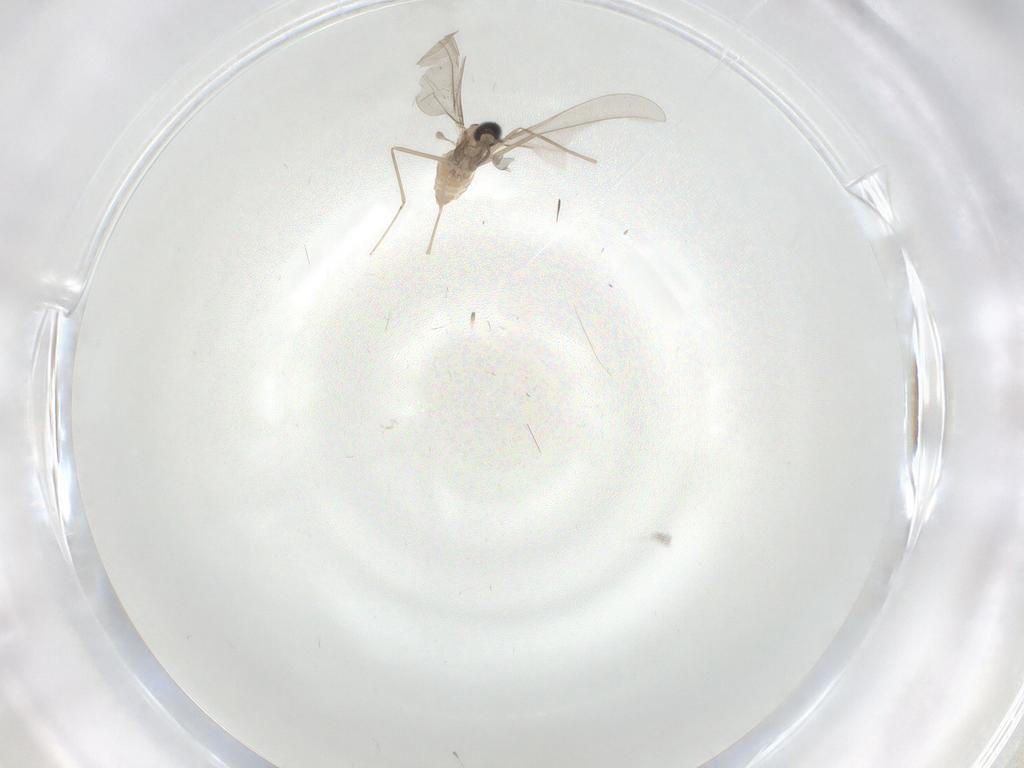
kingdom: Animalia
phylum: Arthropoda
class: Insecta
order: Diptera
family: Cecidomyiidae
